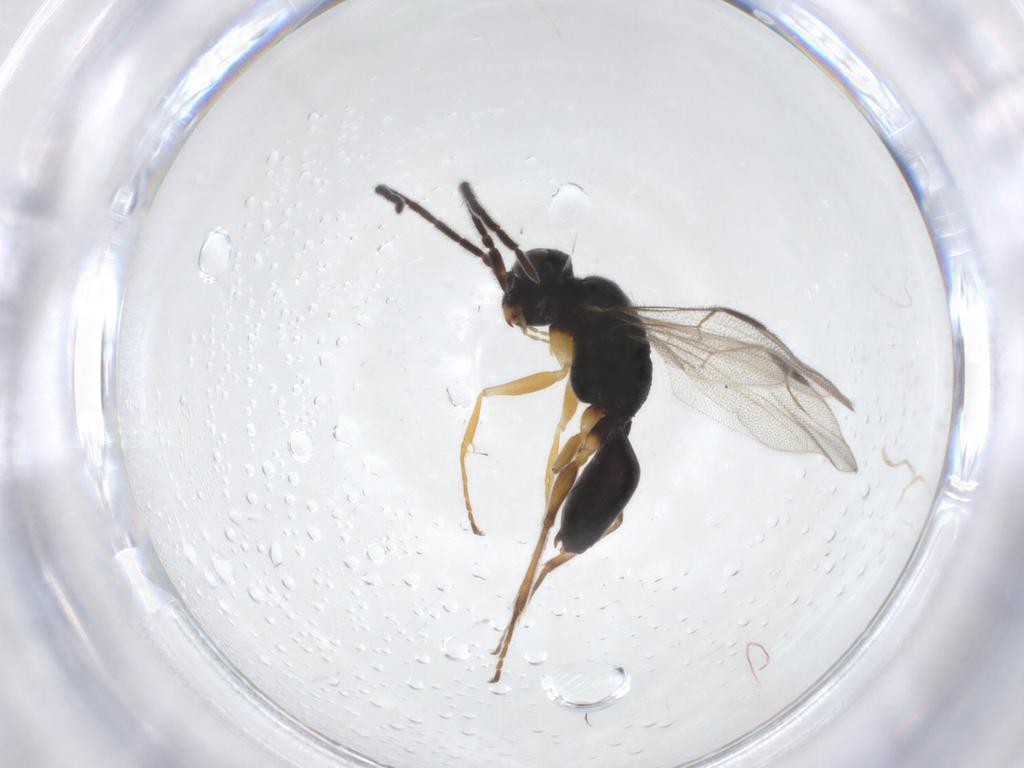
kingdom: Animalia
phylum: Arthropoda
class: Insecta
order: Hymenoptera
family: Dryinidae
